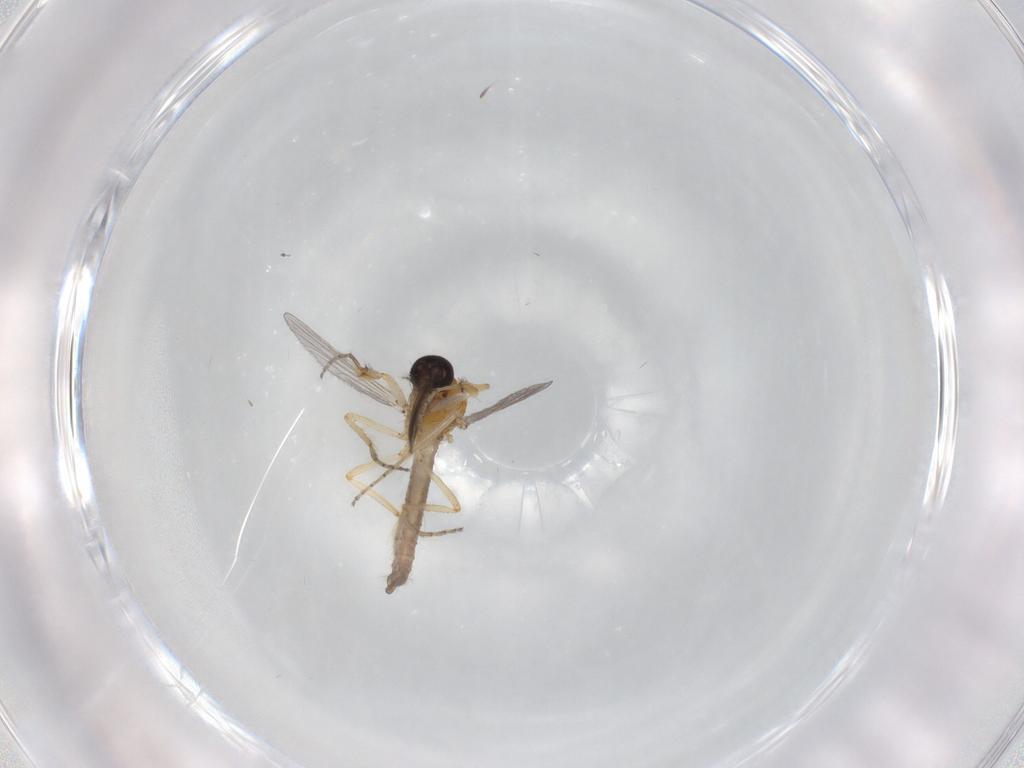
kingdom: Animalia
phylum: Arthropoda
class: Insecta
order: Diptera
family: Ceratopogonidae
